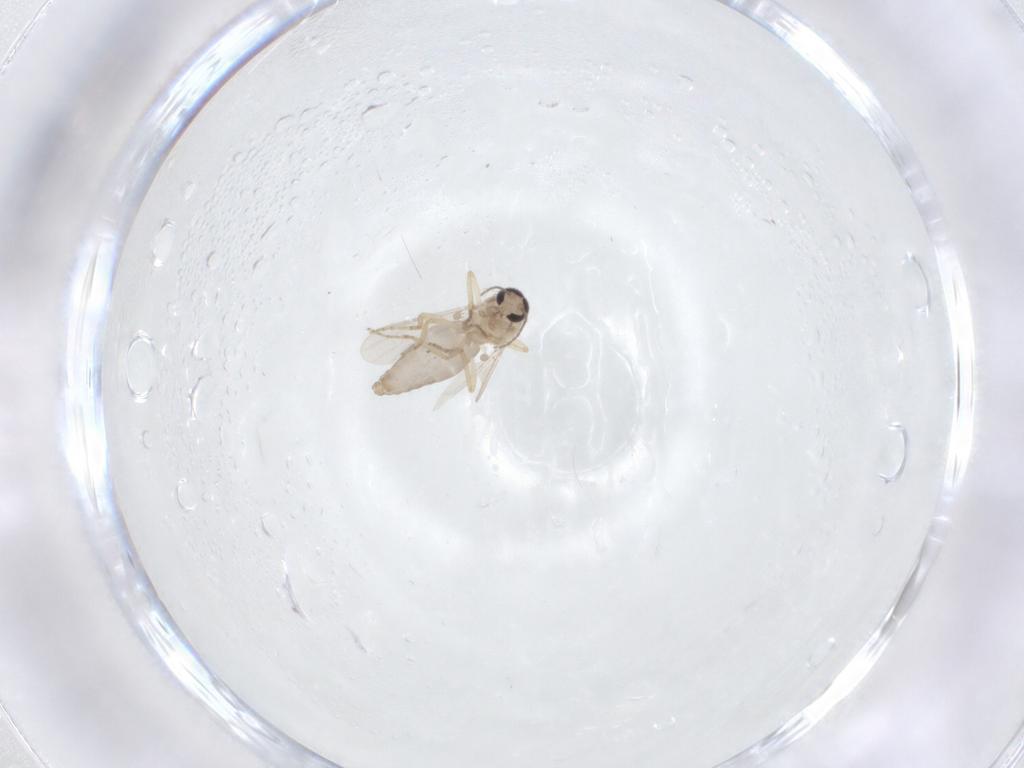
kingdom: Animalia
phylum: Arthropoda
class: Insecta
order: Diptera
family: Ceratopogonidae
